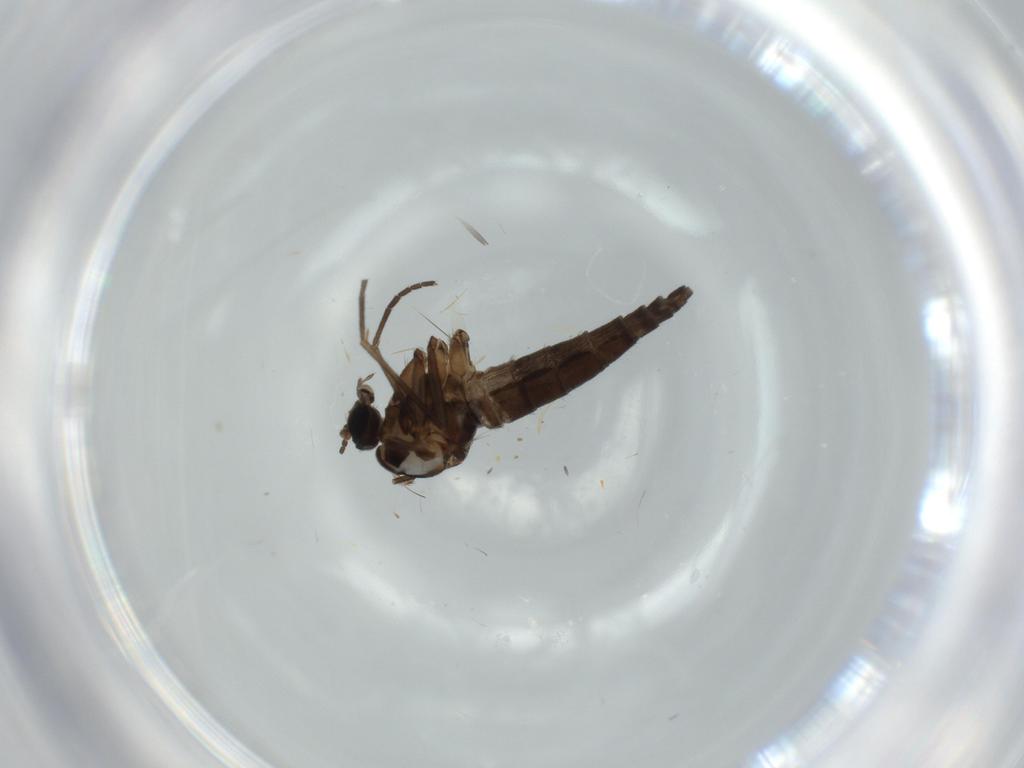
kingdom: Animalia
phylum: Arthropoda
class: Insecta
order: Diptera
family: Sciaridae
